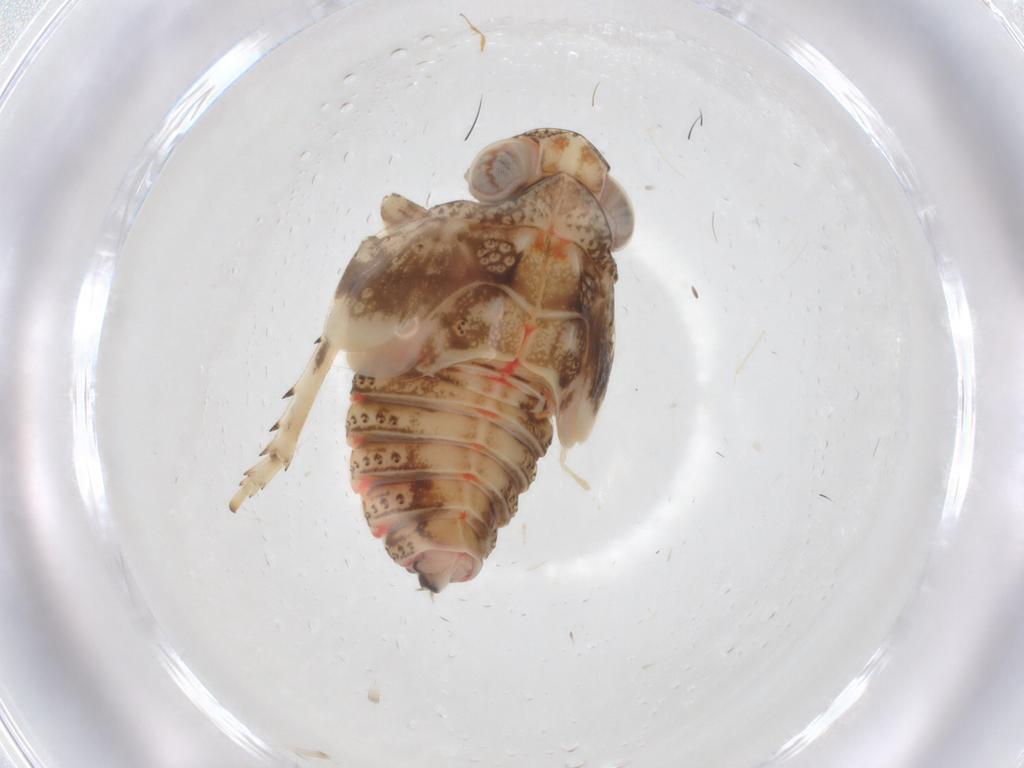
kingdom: Animalia
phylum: Arthropoda
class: Insecta
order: Hemiptera
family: Issidae
